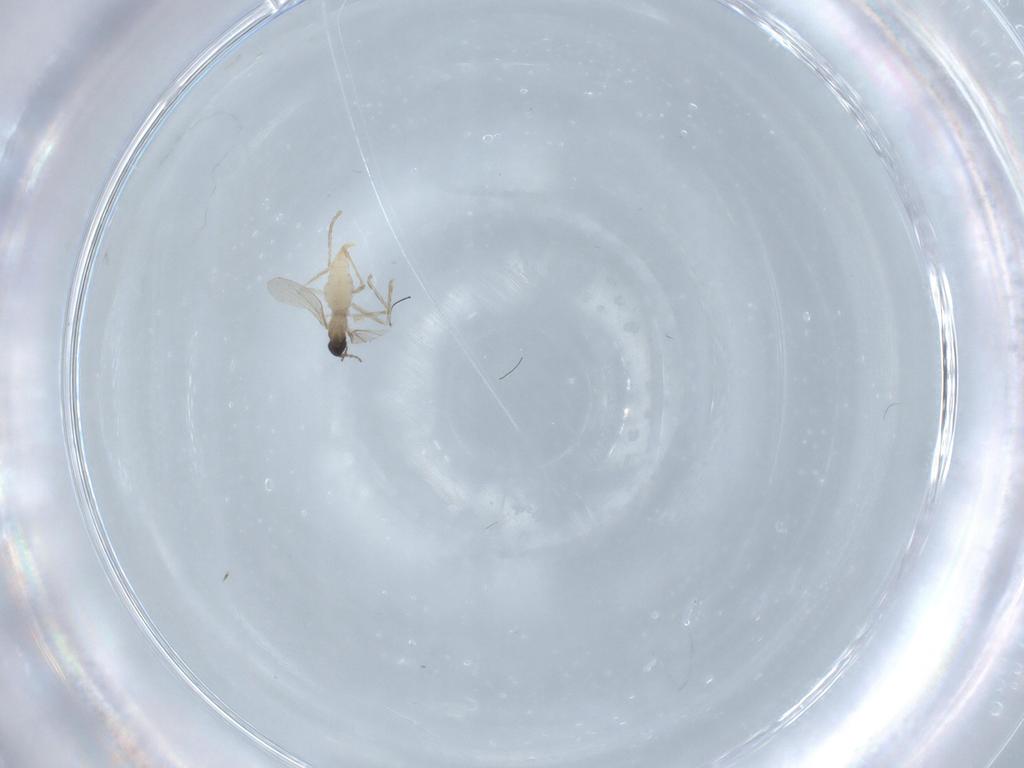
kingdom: Animalia
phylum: Arthropoda
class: Insecta
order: Diptera
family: Cecidomyiidae
